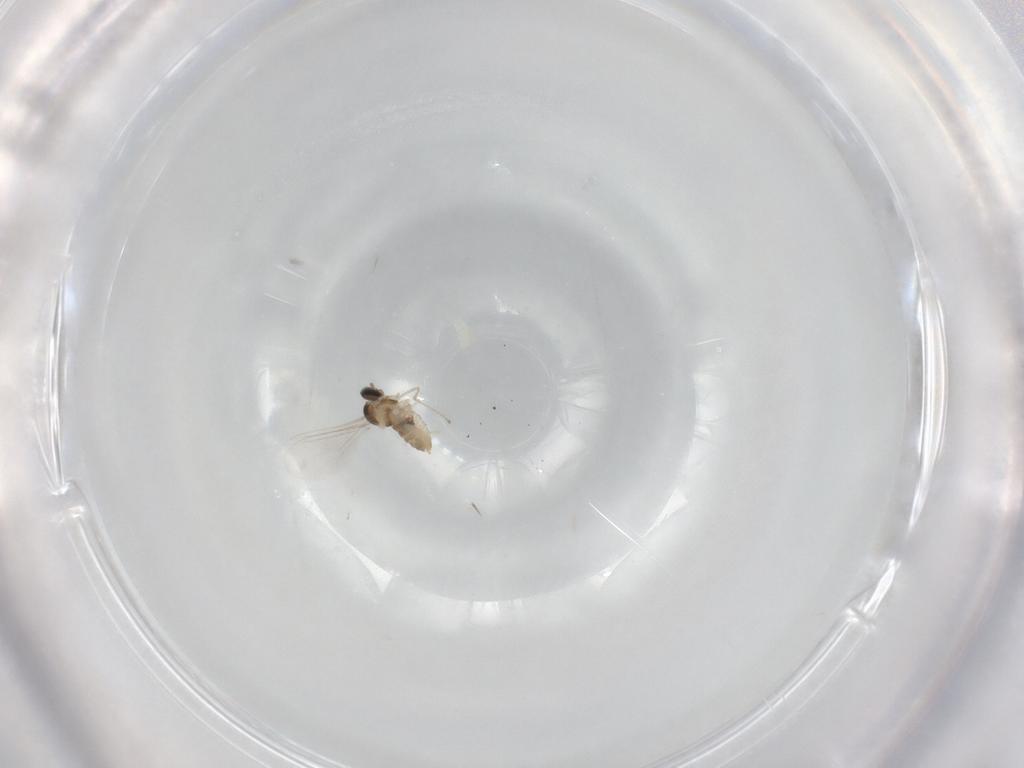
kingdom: Animalia
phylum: Arthropoda
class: Insecta
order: Diptera
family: Cecidomyiidae
